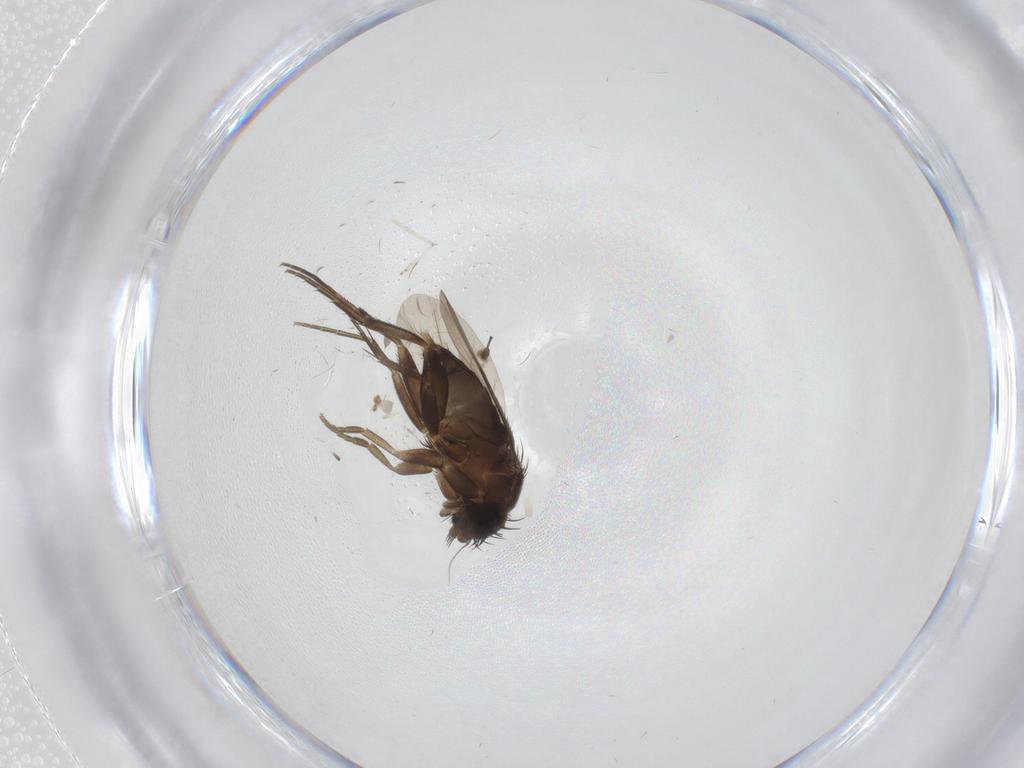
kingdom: Animalia
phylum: Arthropoda
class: Insecta
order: Diptera
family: Phoridae
